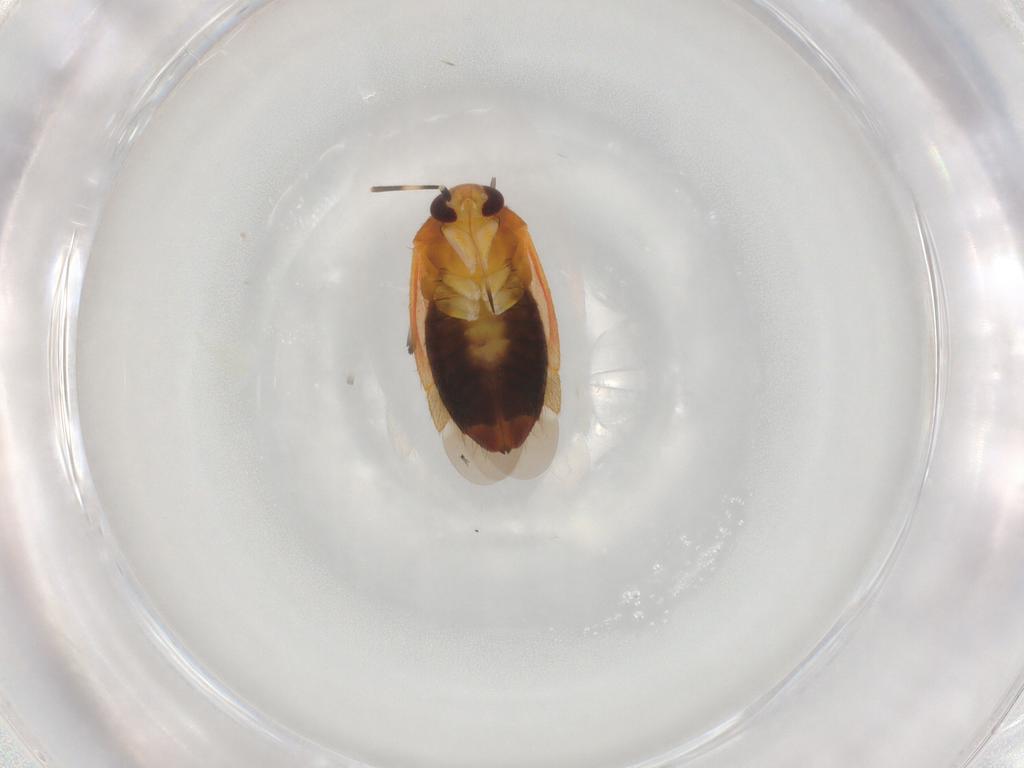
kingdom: Animalia
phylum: Arthropoda
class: Insecta
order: Hemiptera
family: Miridae
